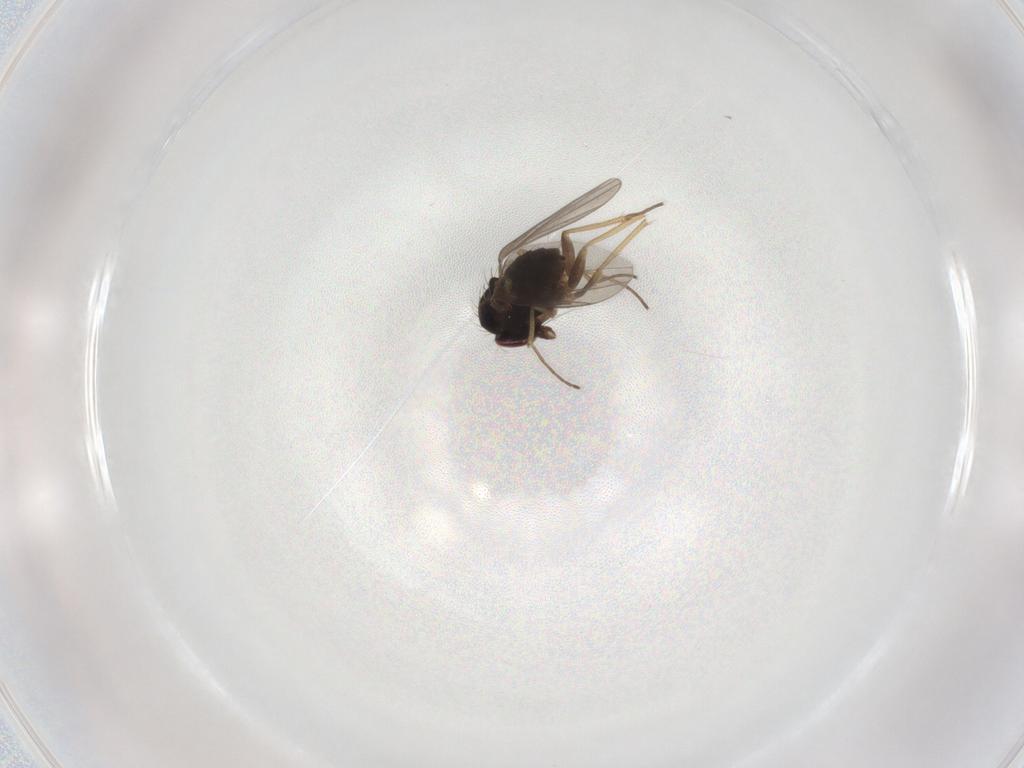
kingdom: Animalia
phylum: Arthropoda
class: Insecta
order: Diptera
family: Dolichopodidae
